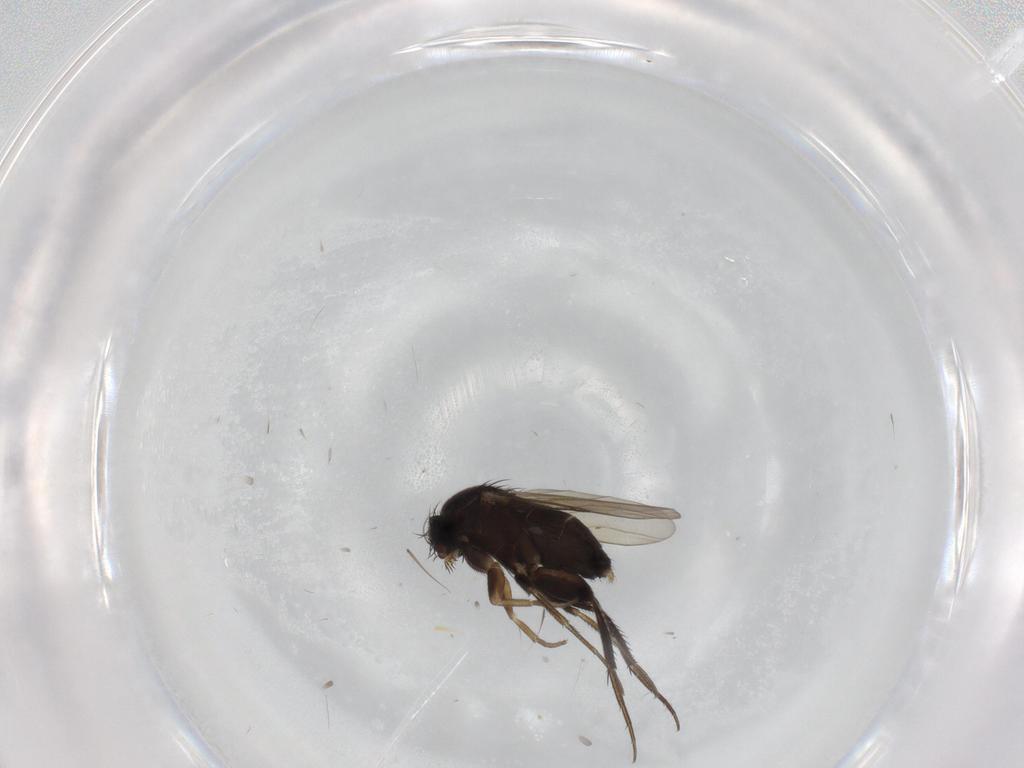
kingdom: Animalia
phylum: Arthropoda
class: Insecta
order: Diptera
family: Phoridae
